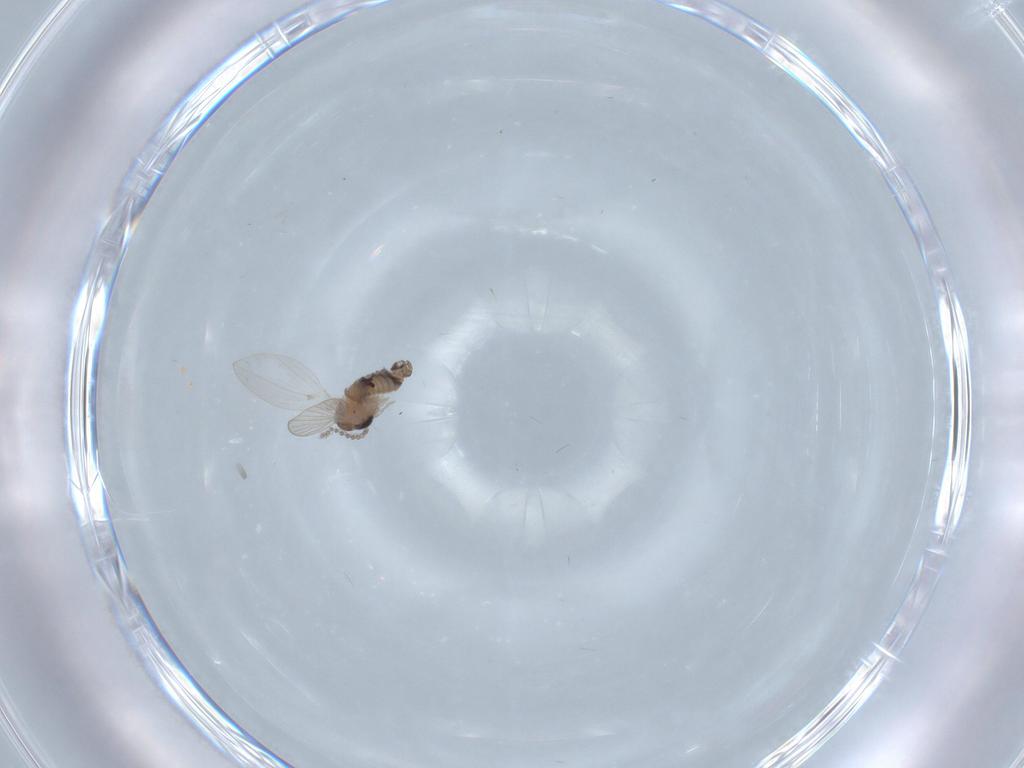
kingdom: Animalia
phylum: Arthropoda
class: Insecta
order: Diptera
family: Psychodidae
